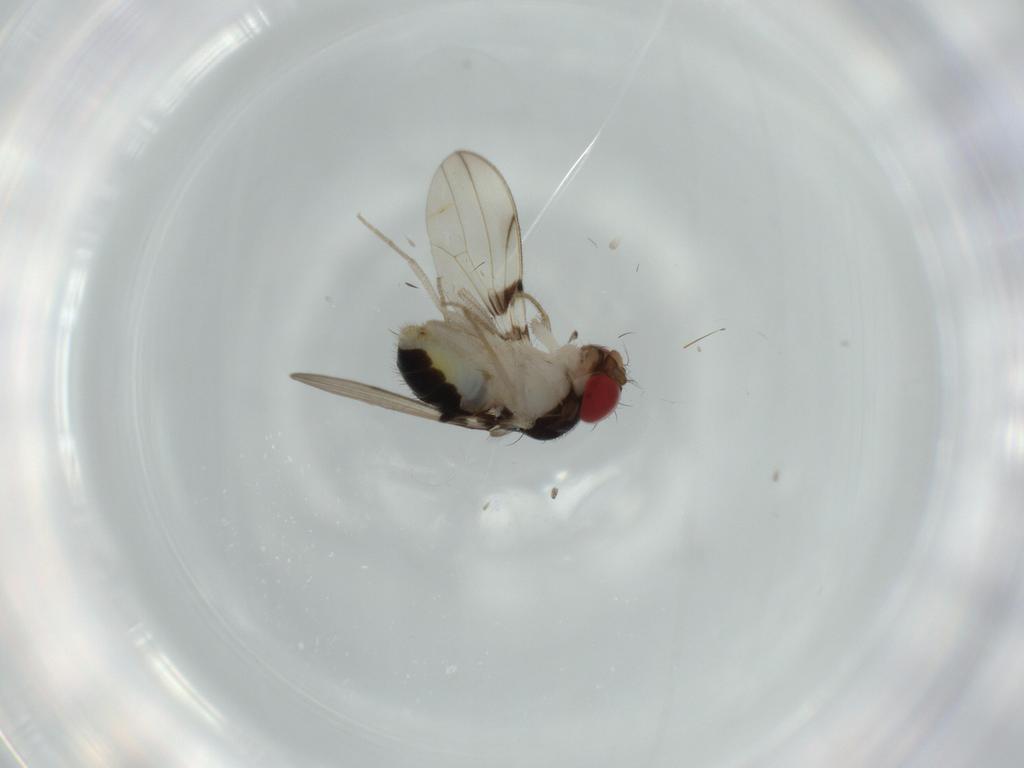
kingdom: Animalia
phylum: Arthropoda
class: Insecta
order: Diptera
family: Drosophilidae
